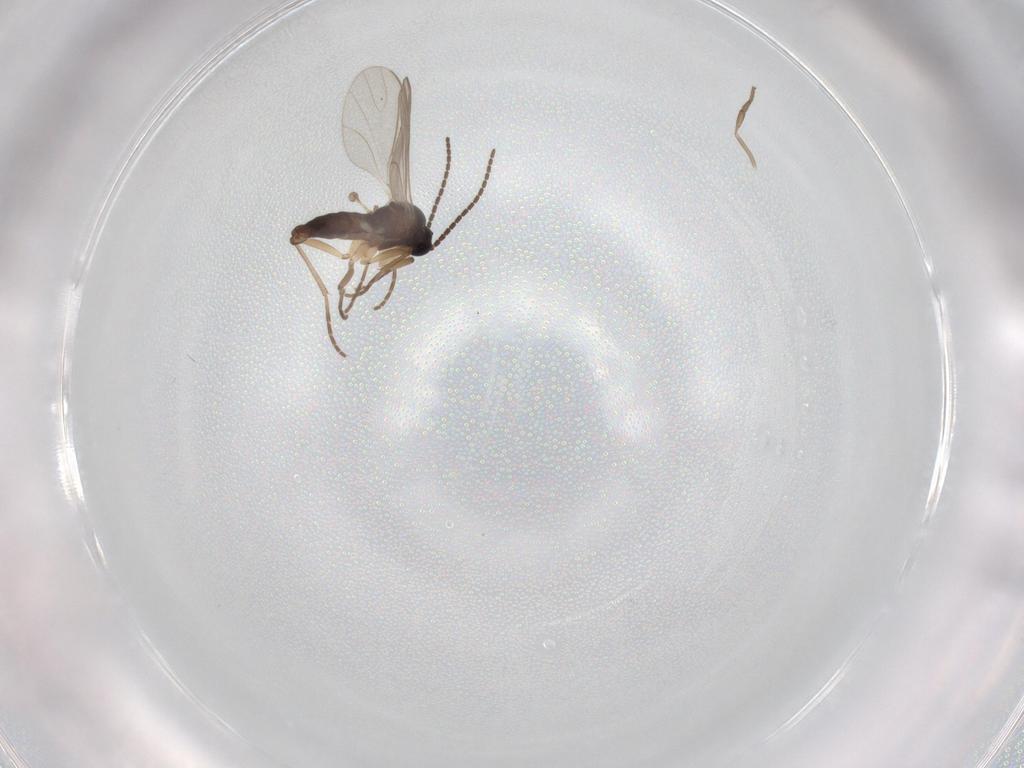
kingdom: Animalia
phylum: Arthropoda
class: Insecta
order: Diptera
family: Sciaridae
